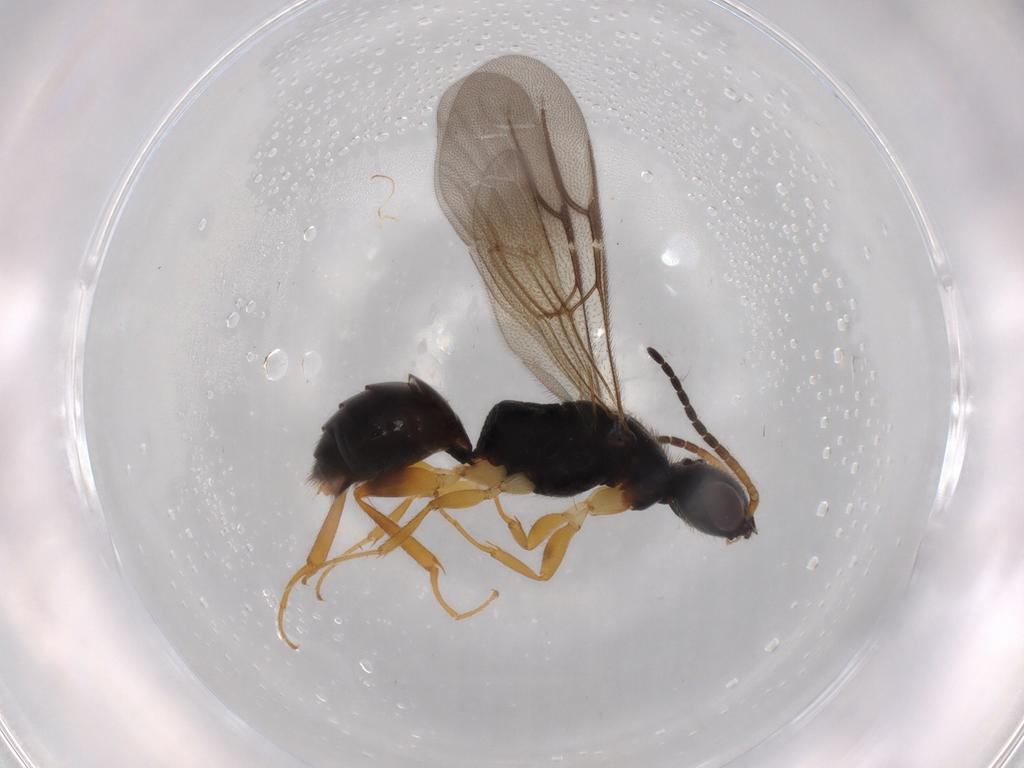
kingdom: Animalia
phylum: Arthropoda
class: Insecta
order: Hymenoptera
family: Bethylidae
